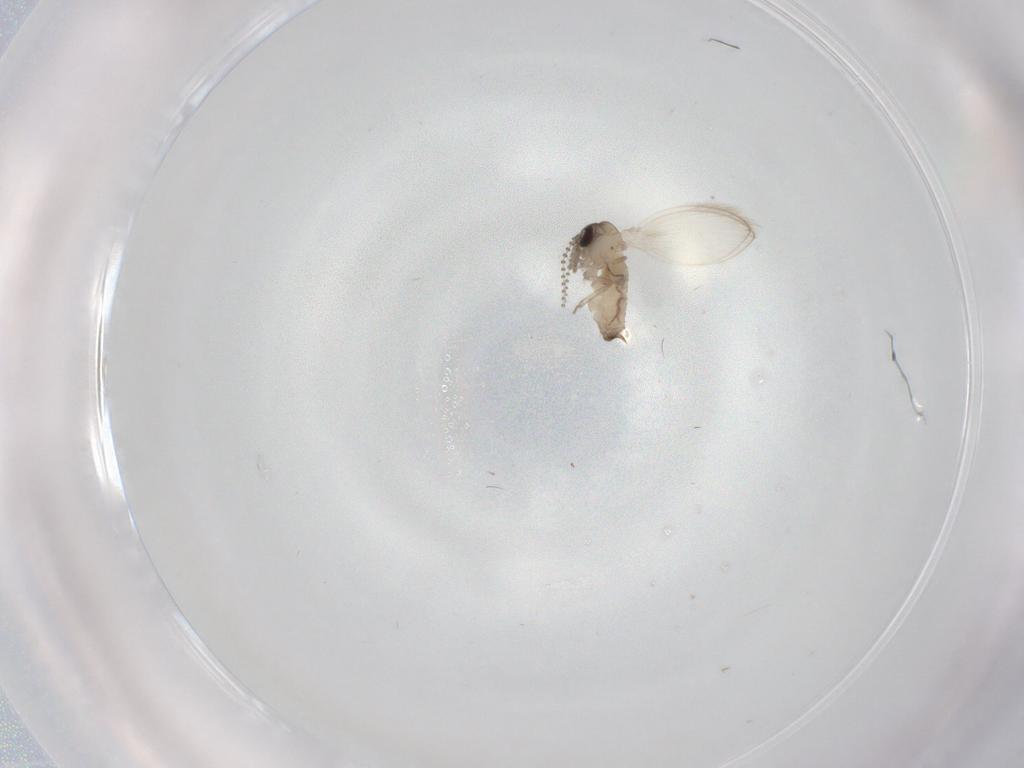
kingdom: Animalia
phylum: Arthropoda
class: Insecta
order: Diptera
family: Psychodidae
